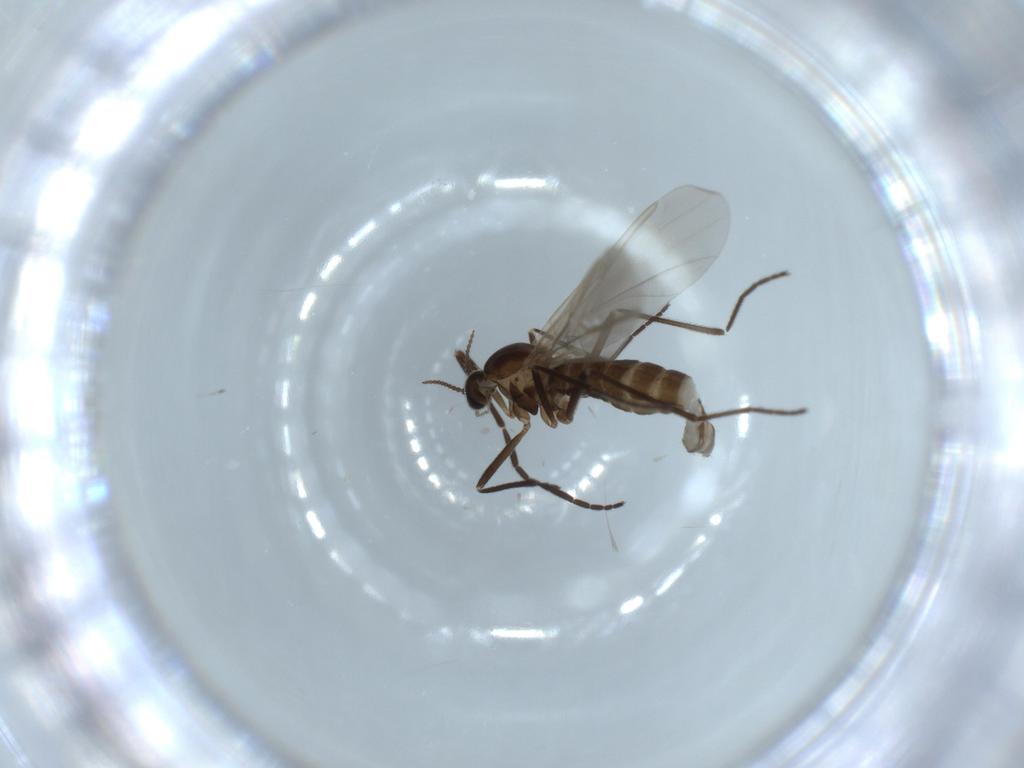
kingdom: Animalia
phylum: Arthropoda
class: Insecta
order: Diptera
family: Cecidomyiidae
